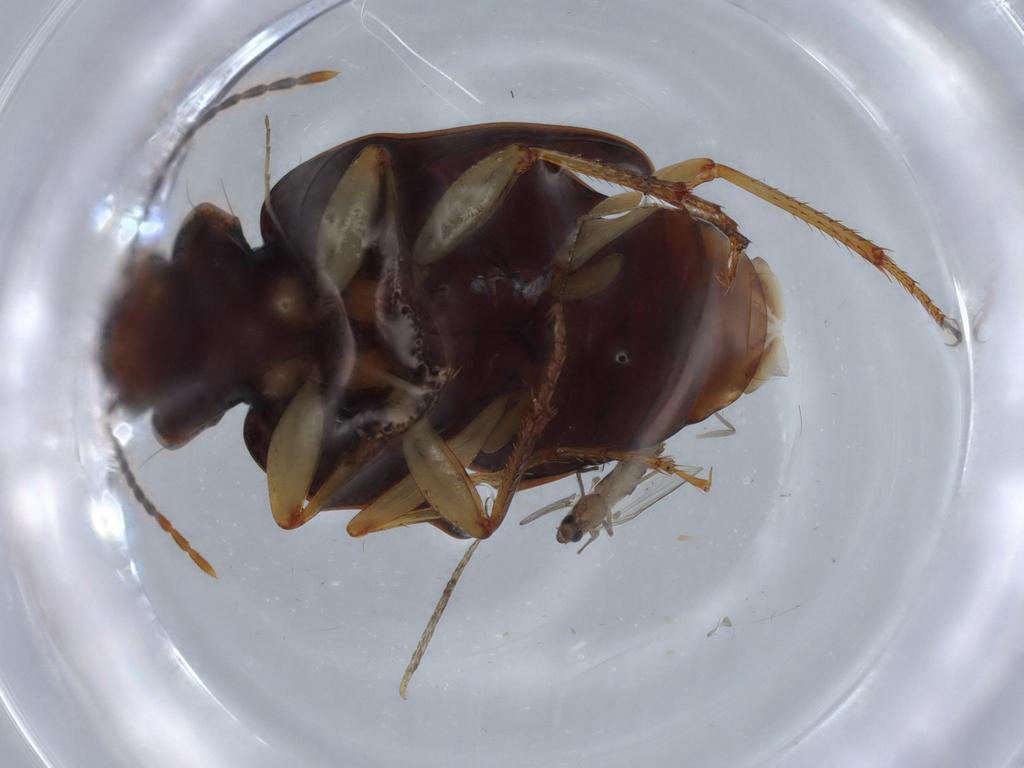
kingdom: Animalia
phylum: Arthropoda
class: Insecta
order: Coleoptera
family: Carabidae
